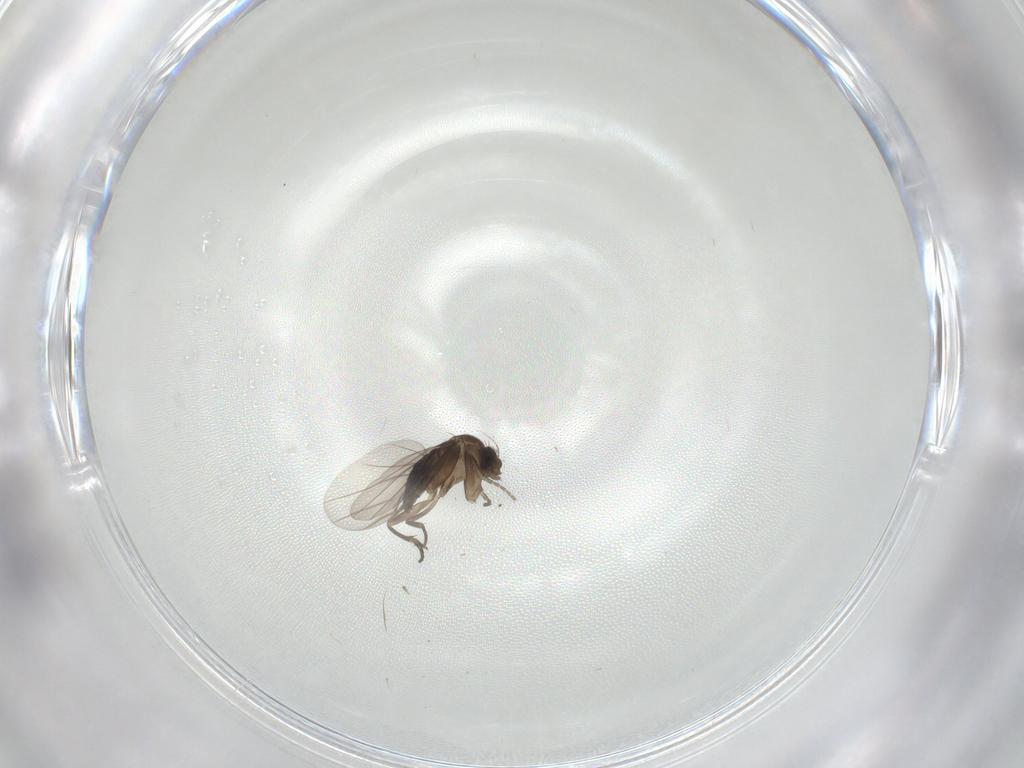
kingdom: Animalia
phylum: Arthropoda
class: Insecta
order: Diptera
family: Phoridae
